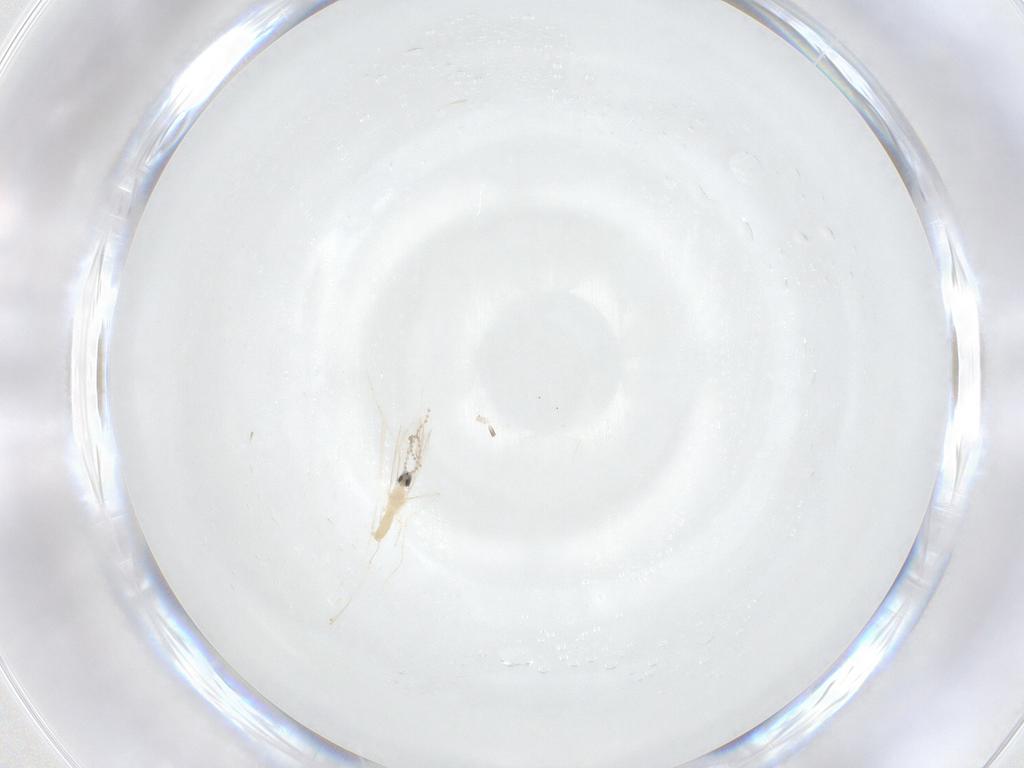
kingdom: Animalia
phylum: Arthropoda
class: Insecta
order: Diptera
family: Cecidomyiidae
